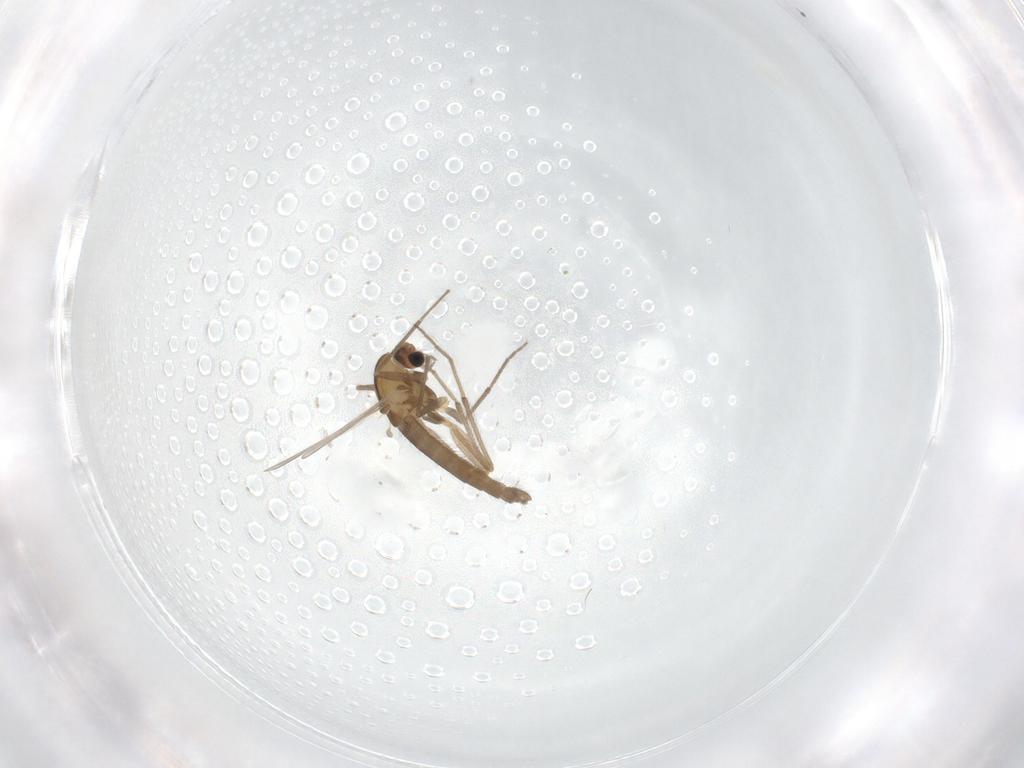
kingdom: Animalia
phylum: Arthropoda
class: Insecta
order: Diptera
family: Chironomidae
